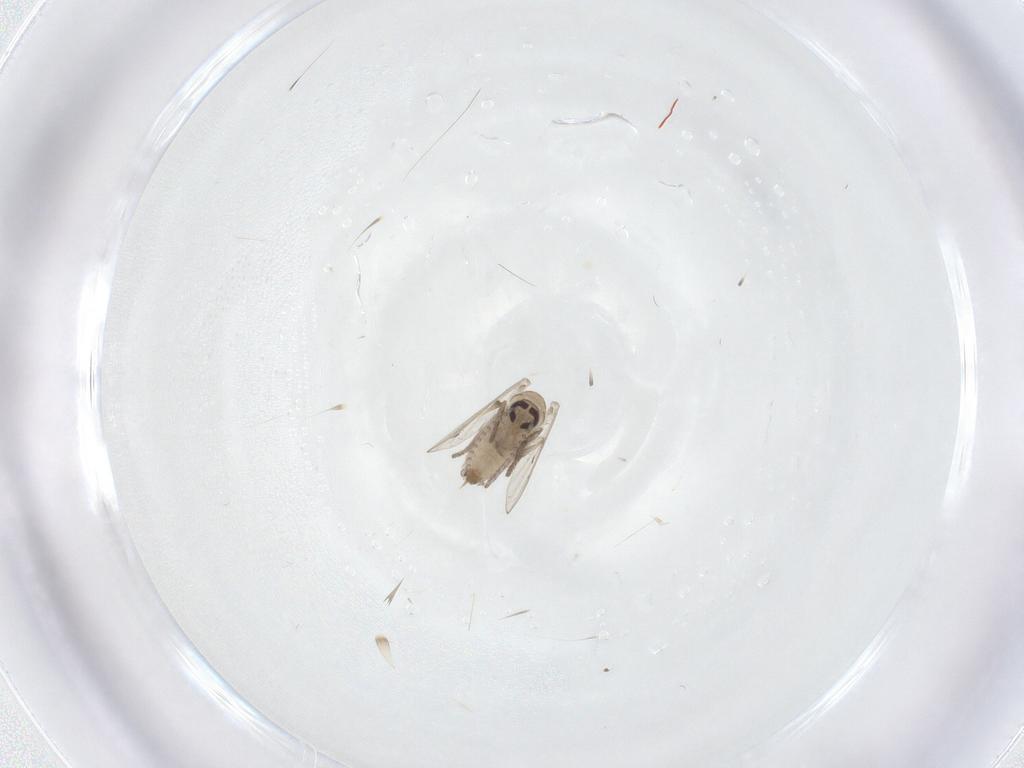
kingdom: Animalia
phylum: Arthropoda
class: Insecta
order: Diptera
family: Psychodidae
